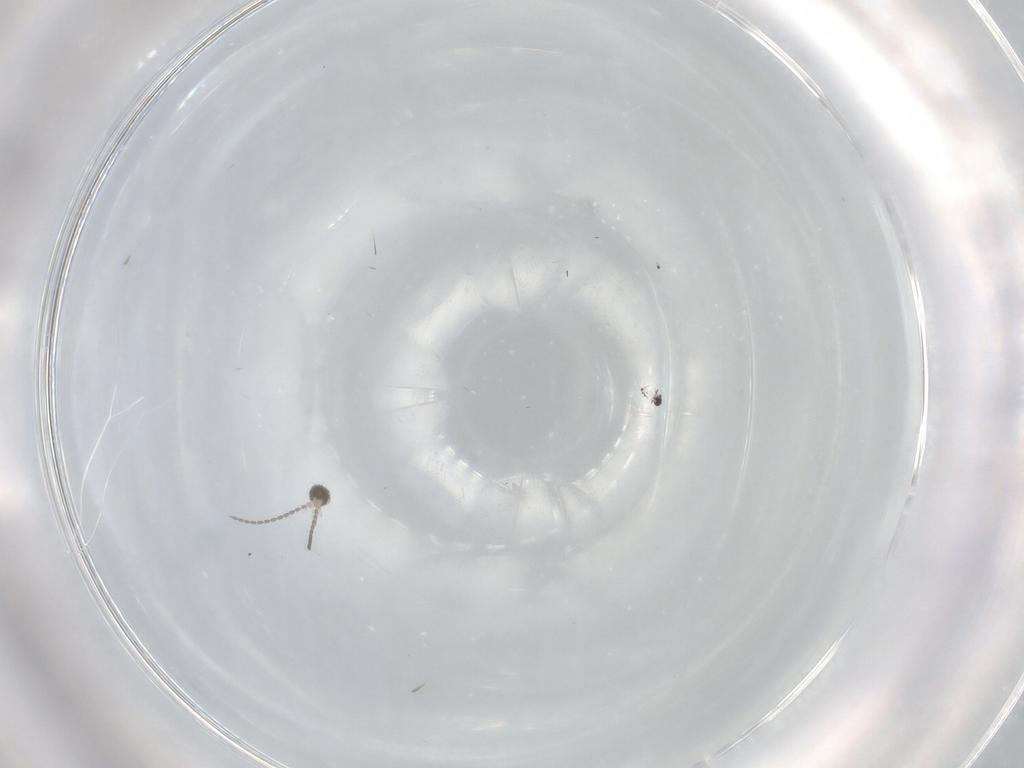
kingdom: Animalia
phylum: Arthropoda
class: Insecta
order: Diptera
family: Cecidomyiidae
